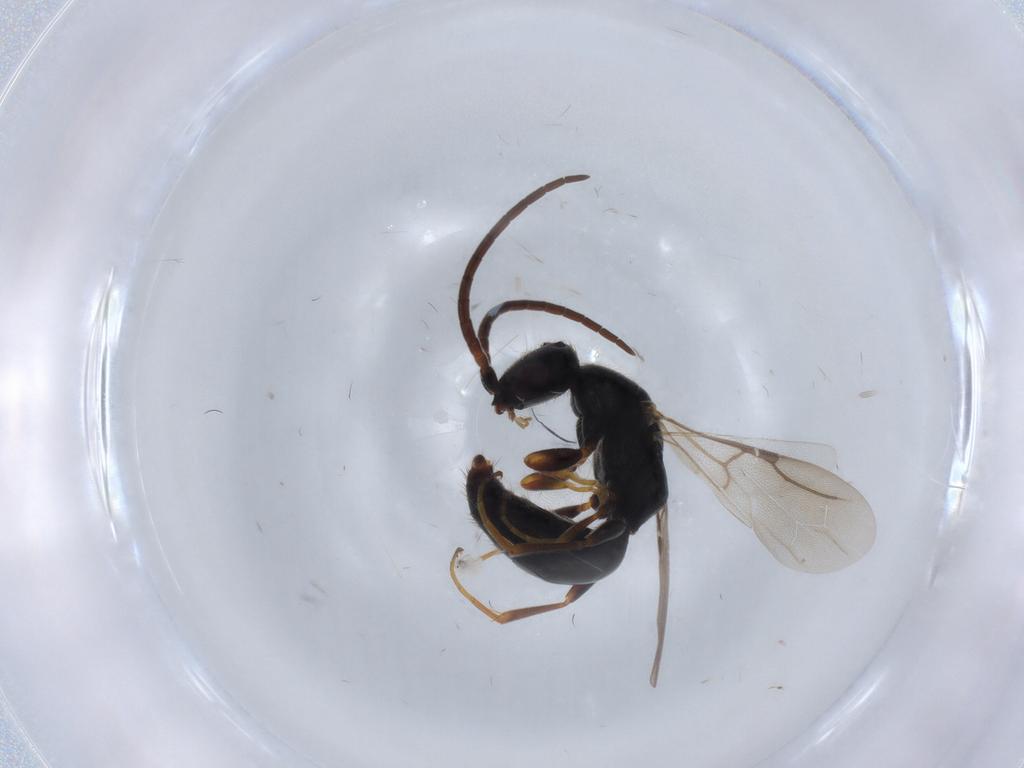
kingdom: Animalia
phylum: Arthropoda
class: Insecta
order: Hymenoptera
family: Bethylidae
